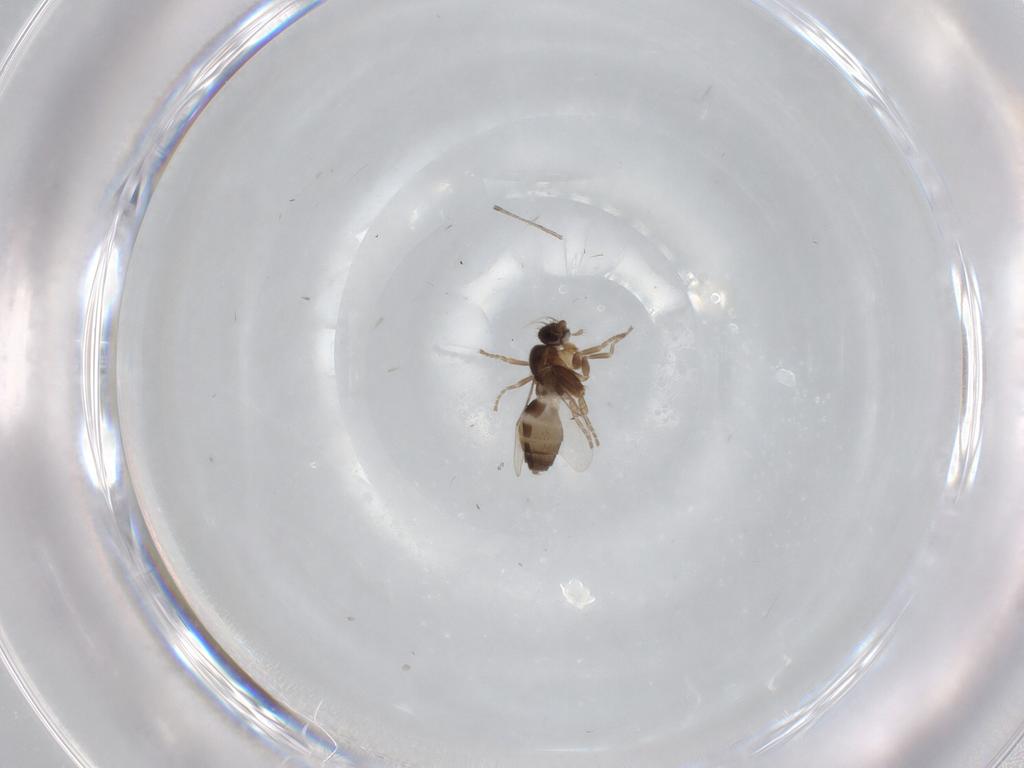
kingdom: Animalia
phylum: Arthropoda
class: Insecta
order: Diptera
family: Phoridae
